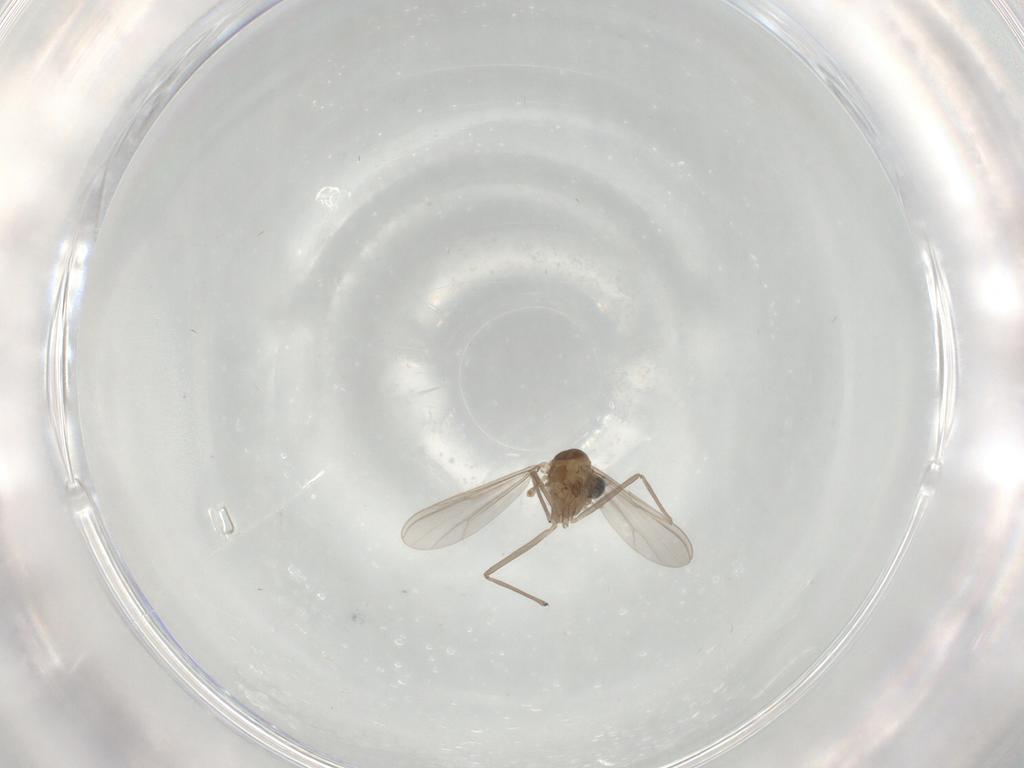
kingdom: Animalia
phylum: Arthropoda
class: Insecta
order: Diptera
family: Chironomidae
